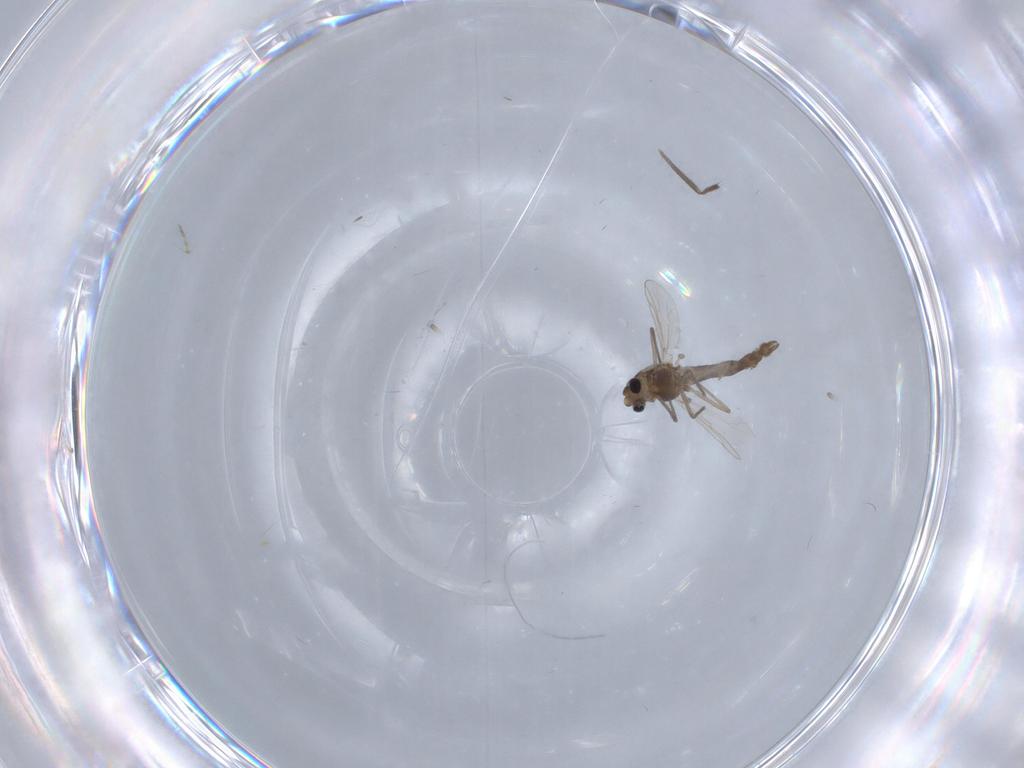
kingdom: Animalia
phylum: Arthropoda
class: Insecta
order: Diptera
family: Chironomidae
